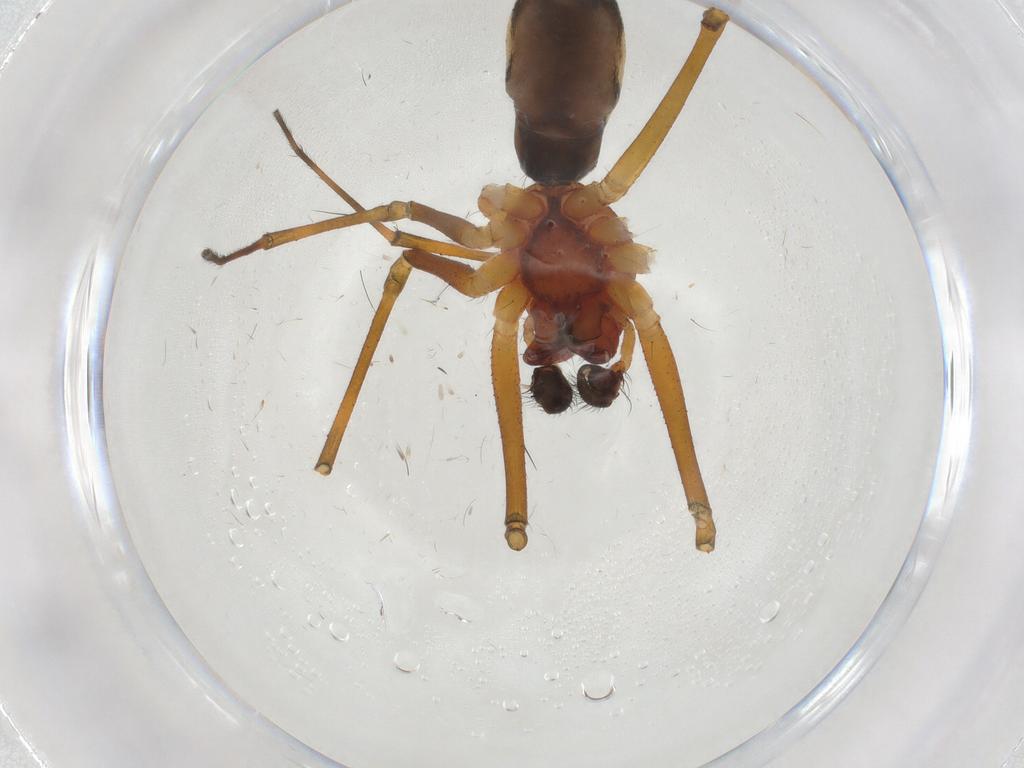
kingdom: Animalia
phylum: Arthropoda
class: Arachnida
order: Araneae
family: Linyphiidae
